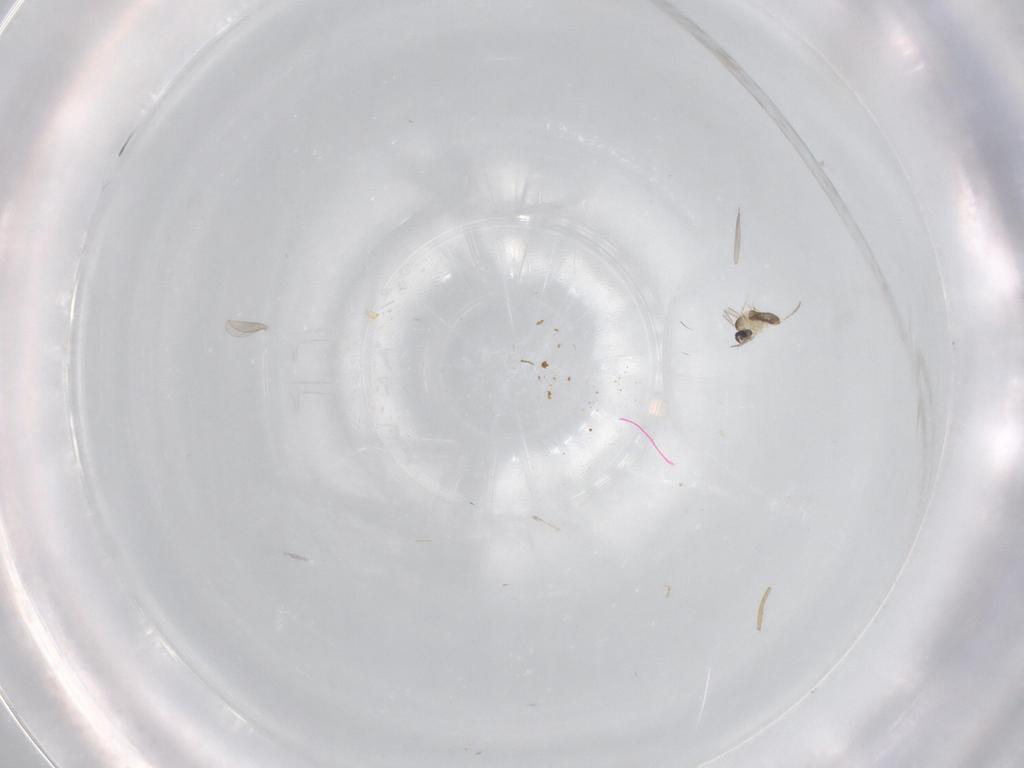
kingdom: Animalia
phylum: Arthropoda
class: Insecta
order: Diptera
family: Cecidomyiidae
